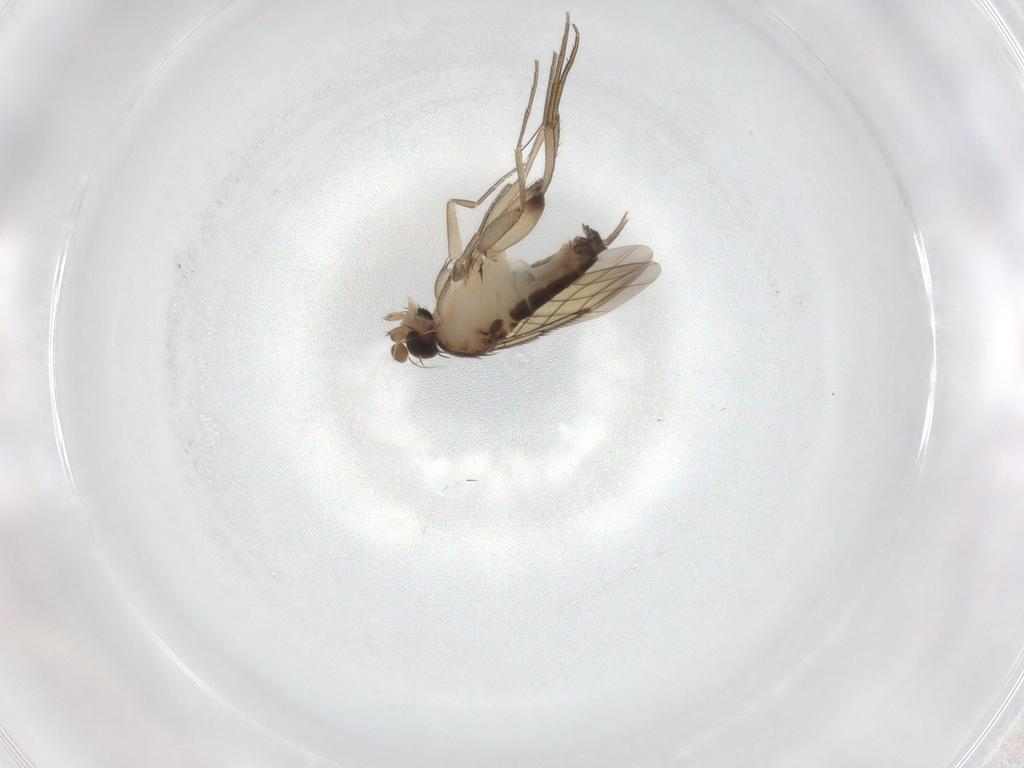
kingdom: Animalia
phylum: Arthropoda
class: Insecta
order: Diptera
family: Phoridae
